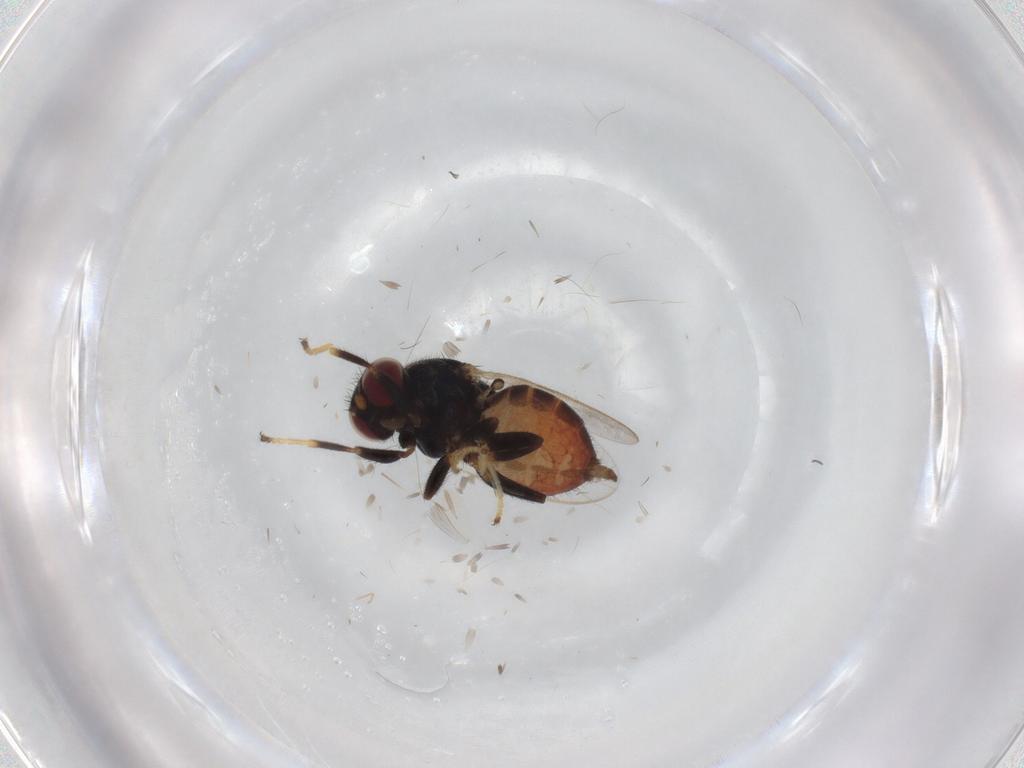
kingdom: Animalia
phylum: Arthropoda
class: Insecta
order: Diptera
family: Chloropidae
